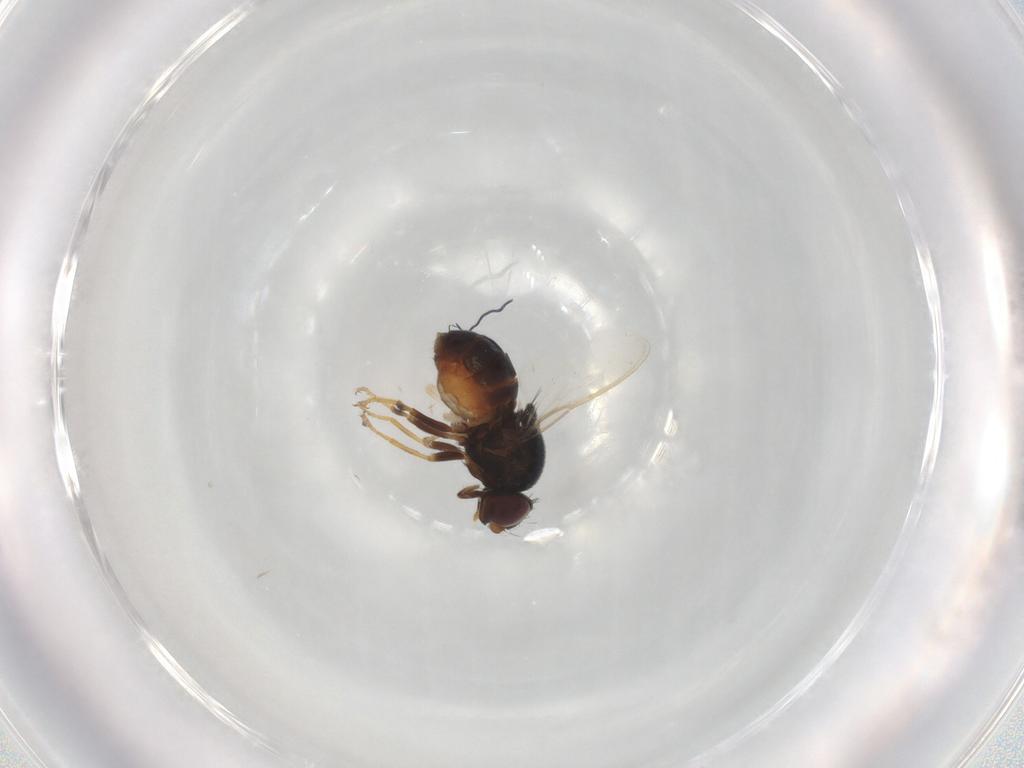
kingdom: Animalia
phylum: Arthropoda
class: Insecta
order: Diptera
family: Chloropidae
